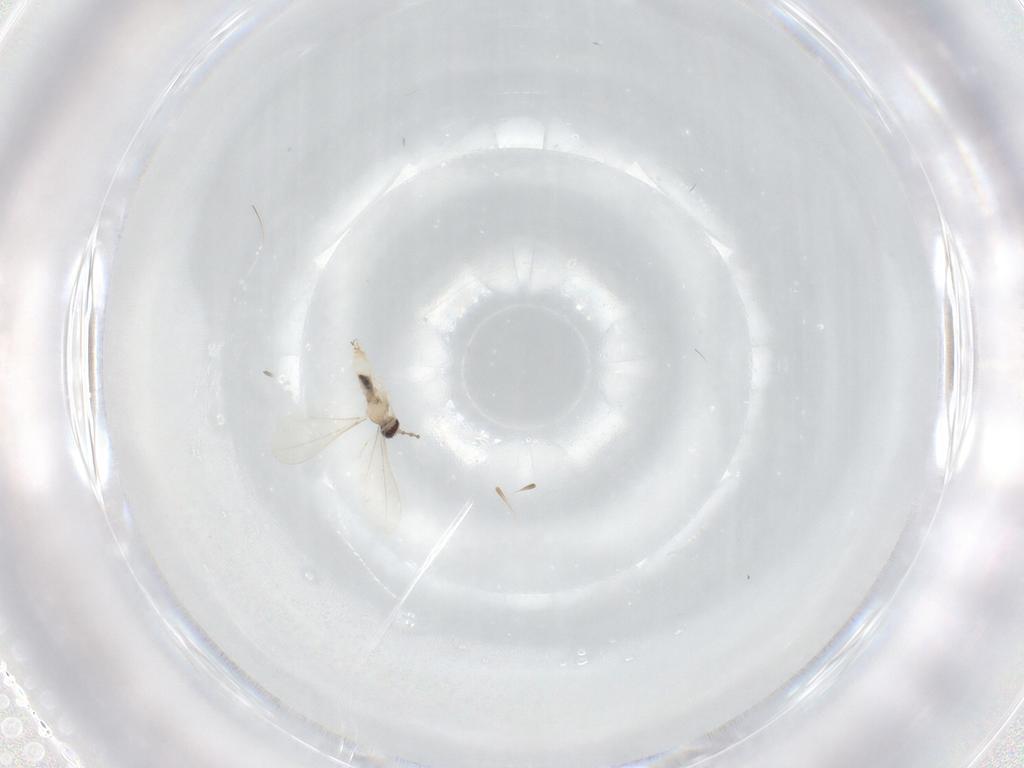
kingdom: Animalia
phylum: Arthropoda
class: Insecta
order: Diptera
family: Cecidomyiidae
